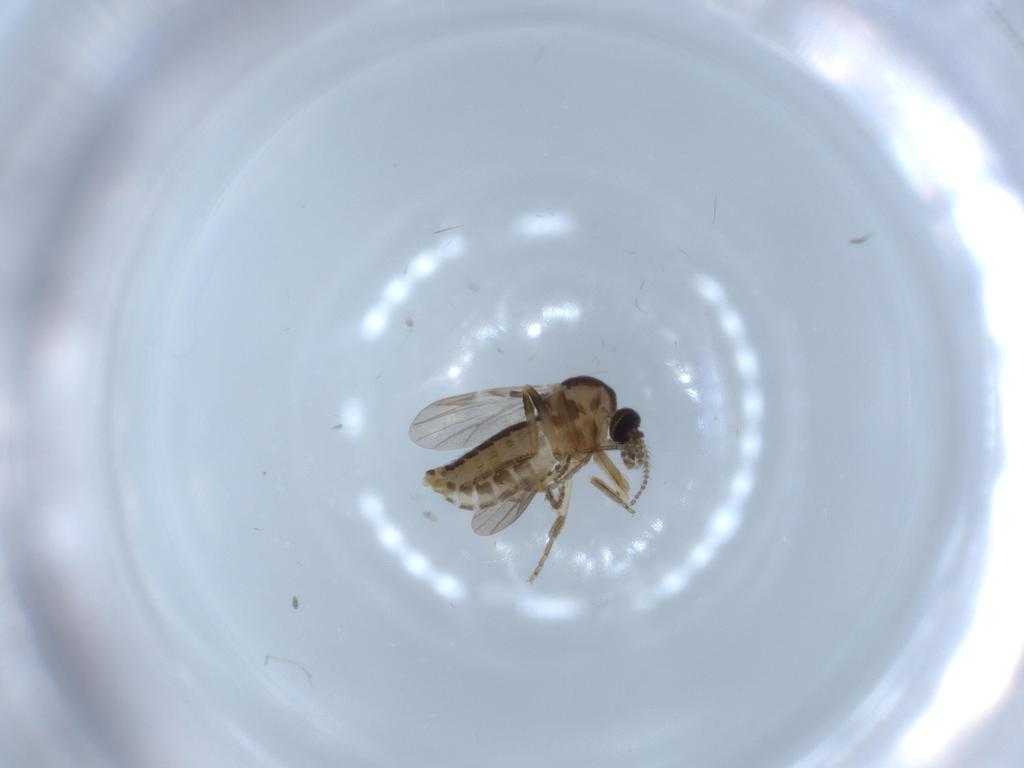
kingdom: Animalia
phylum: Arthropoda
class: Insecta
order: Diptera
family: Ceratopogonidae
